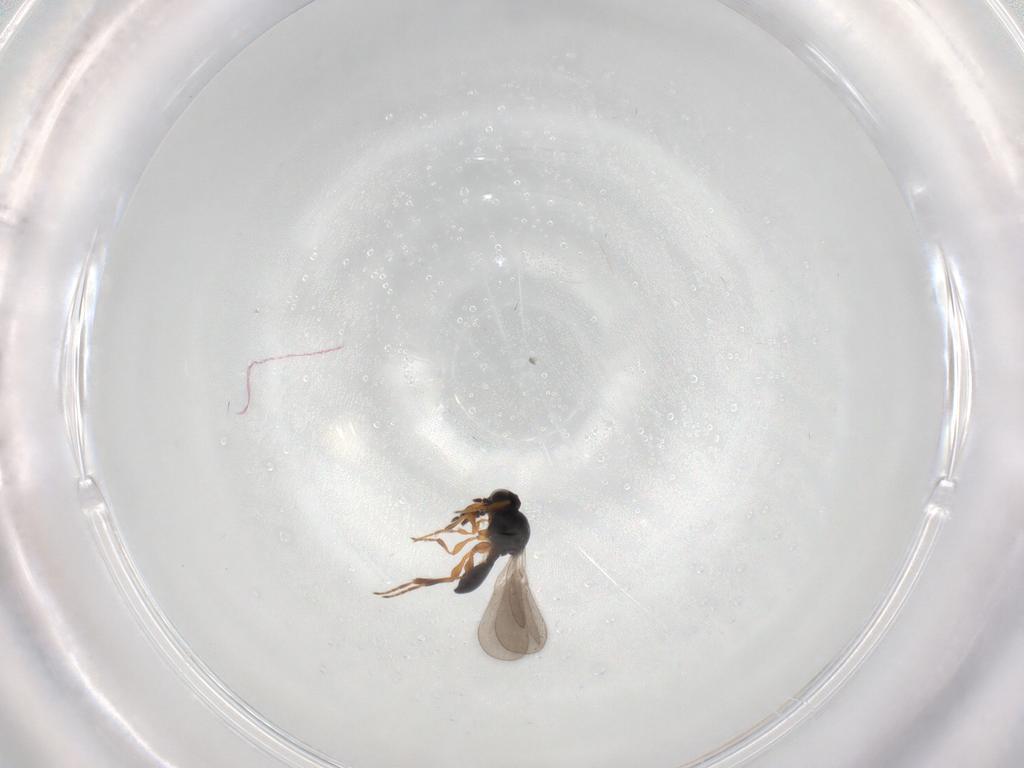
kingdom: Animalia
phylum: Arthropoda
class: Insecta
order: Hymenoptera
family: Platygastridae
